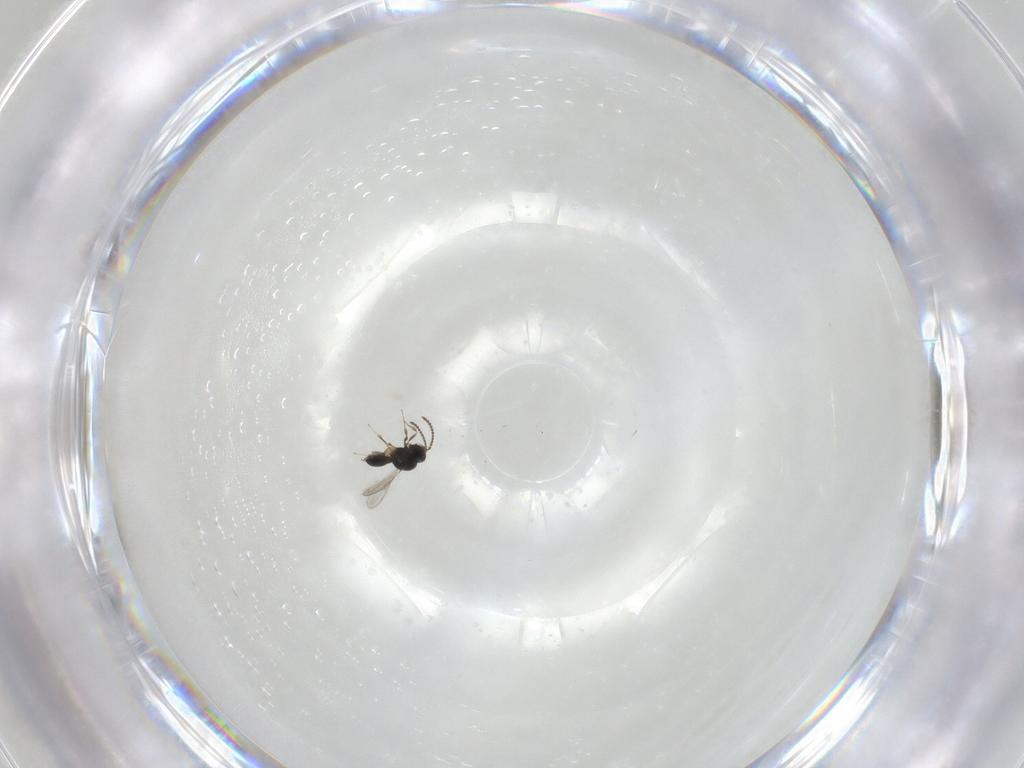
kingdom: Animalia
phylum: Arthropoda
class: Insecta
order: Hymenoptera
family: Scelionidae
